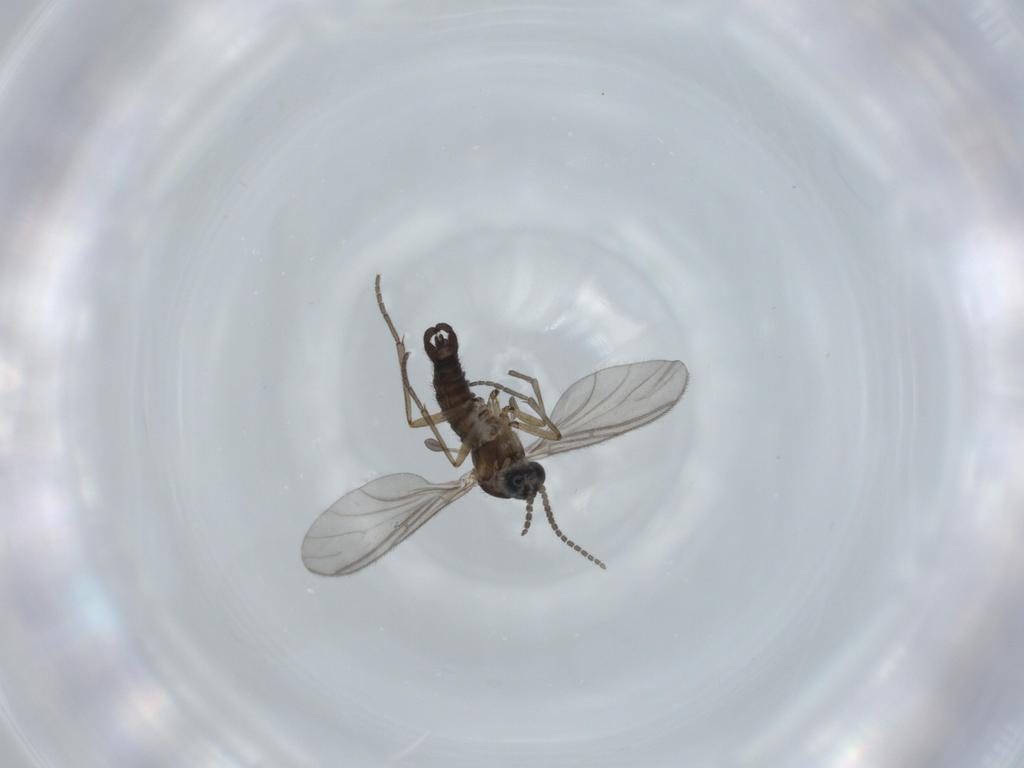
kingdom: Animalia
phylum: Arthropoda
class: Insecta
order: Diptera
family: Sciaridae
